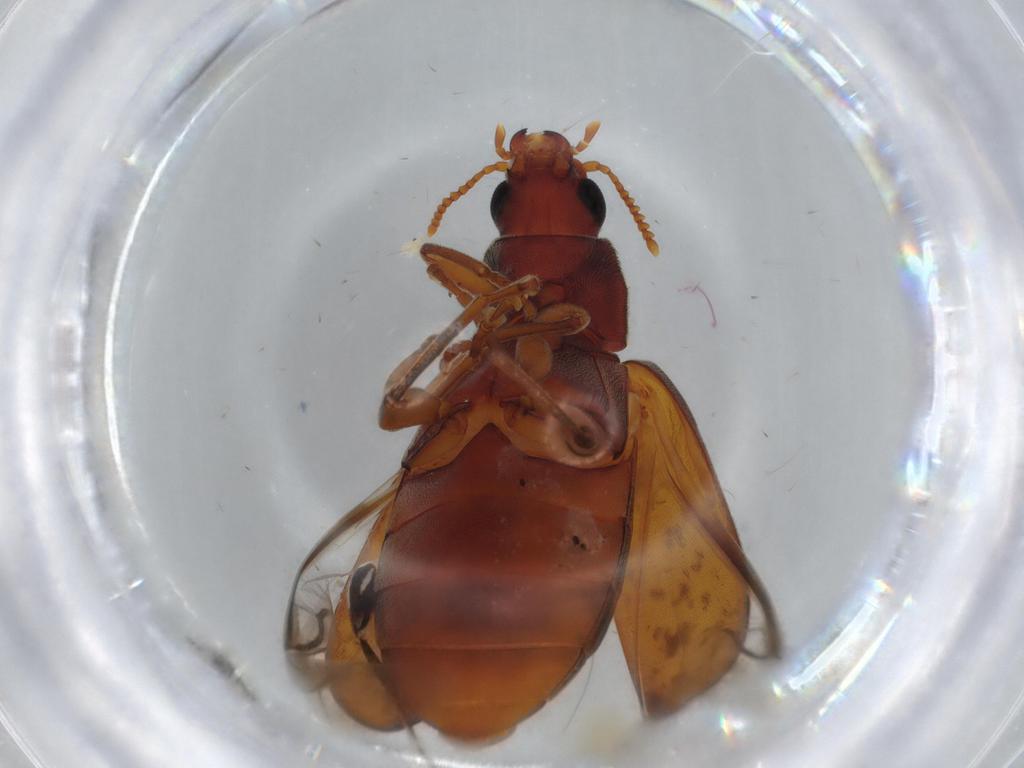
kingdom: Animalia
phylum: Arthropoda
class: Insecta
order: Coleoptera
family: Mycteridae
